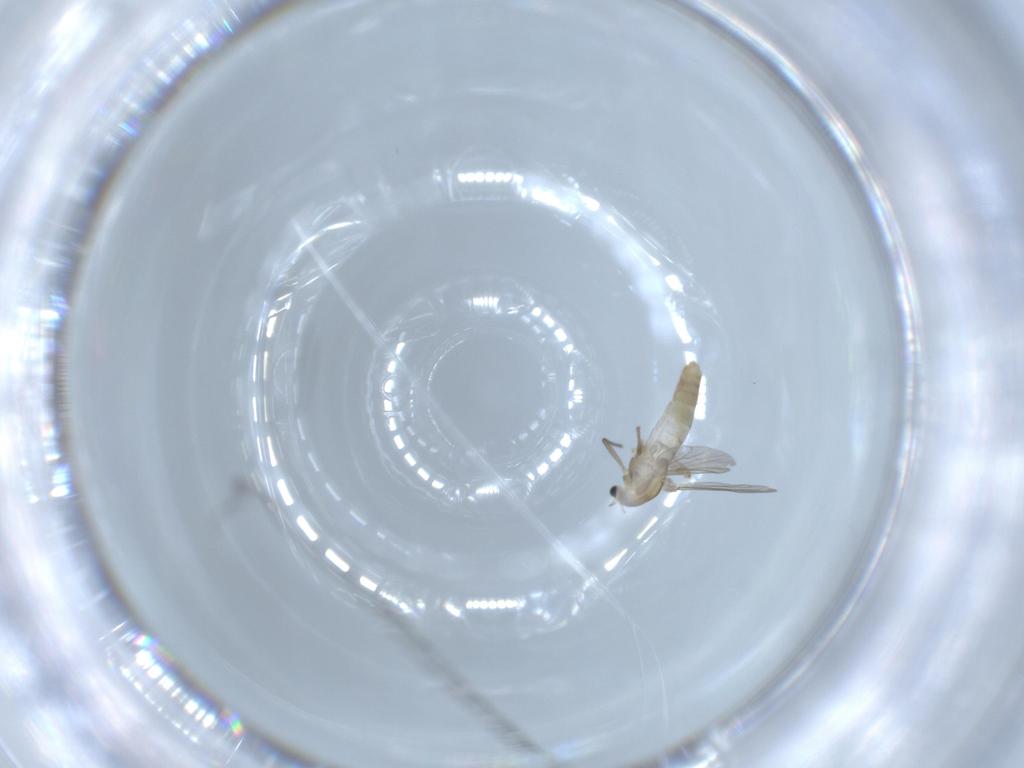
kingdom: Animalia
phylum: Arthropoda
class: Insecta
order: Diptera
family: Chironomidae
